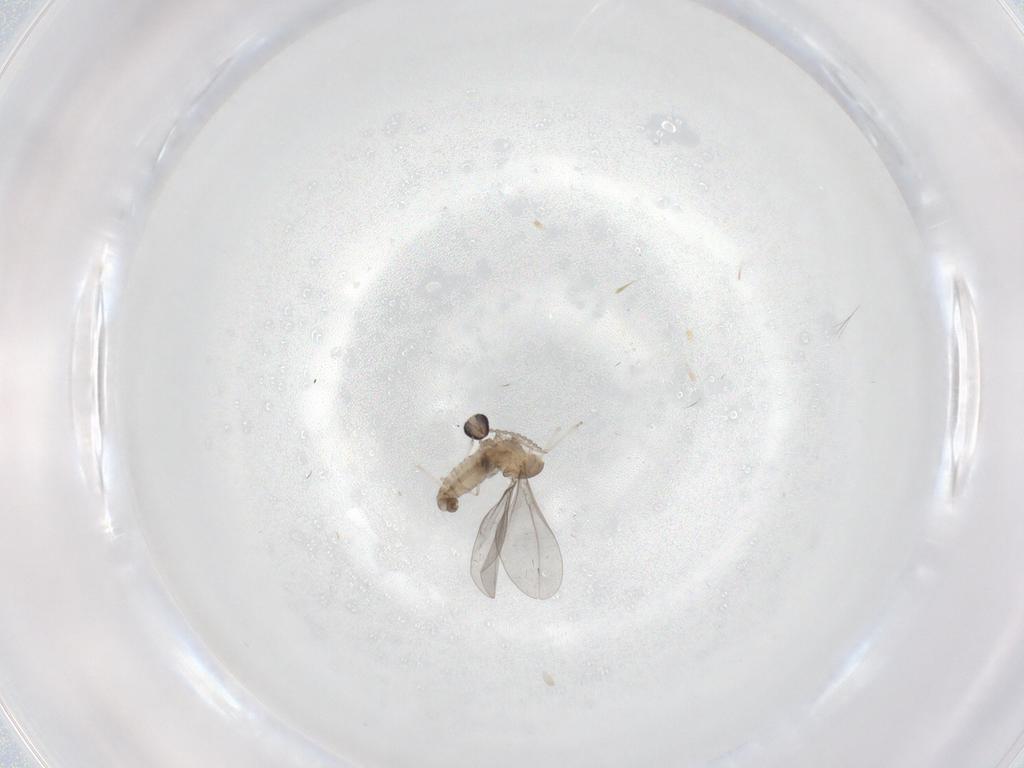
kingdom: Animalia
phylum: Arthropoda
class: Insecta
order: Diptera
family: Cecidomyiidae
